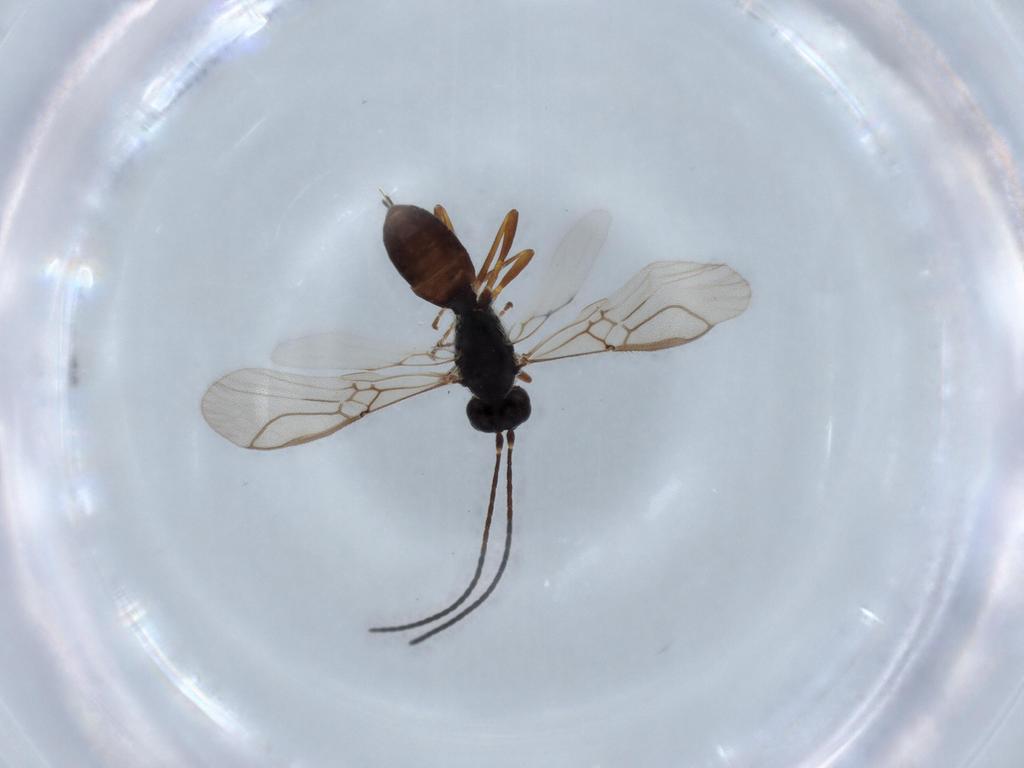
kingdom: Animalia
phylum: Arthropoda
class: Insecta
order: Hymenoptera
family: Braconidae
